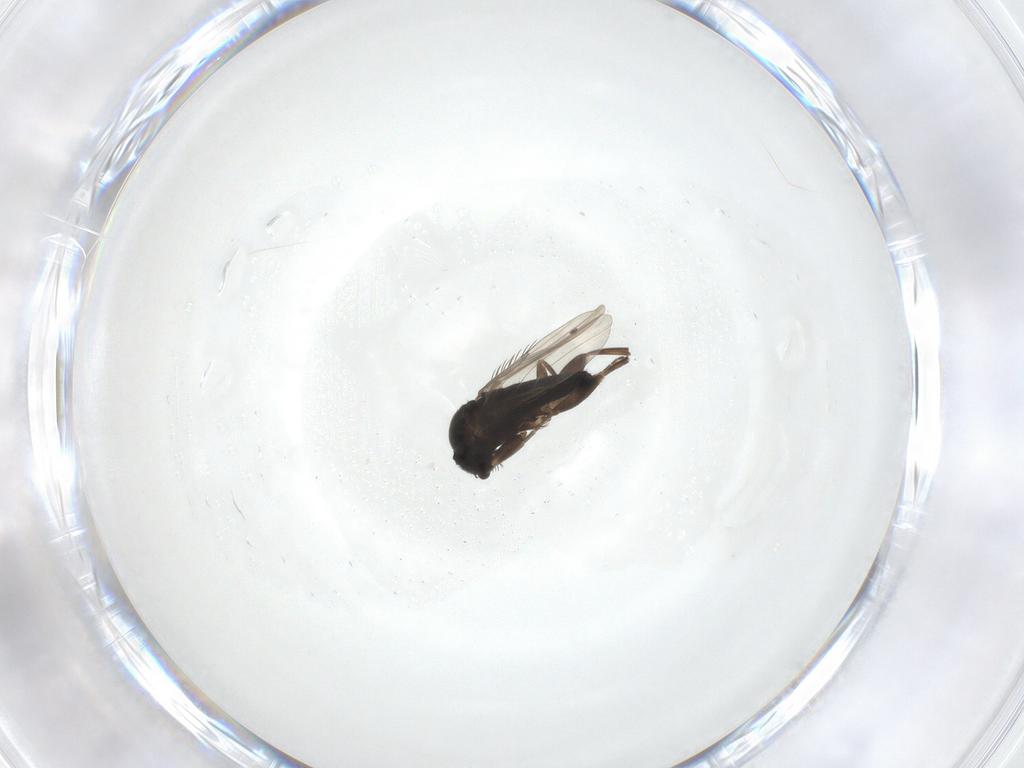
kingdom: Animalia
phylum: Arthropoda
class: Insecta
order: Diptera
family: Phoridae
